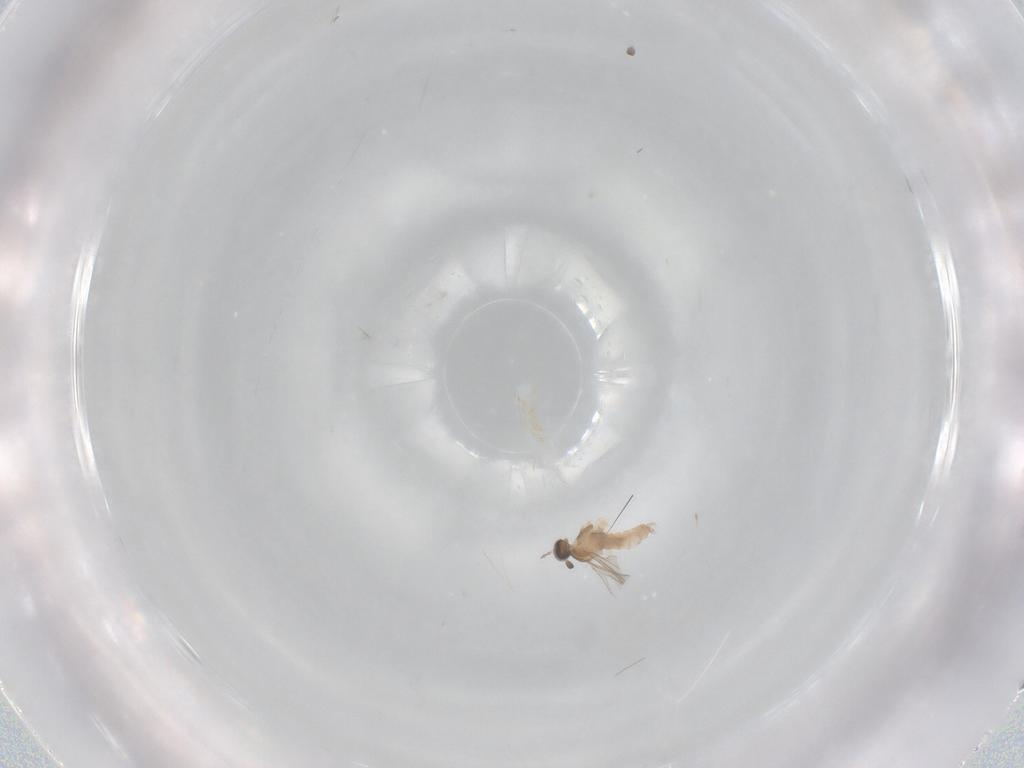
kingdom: Animalia
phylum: Arthropoda
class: Insecta
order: Diptera
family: Cecidomyiidae
